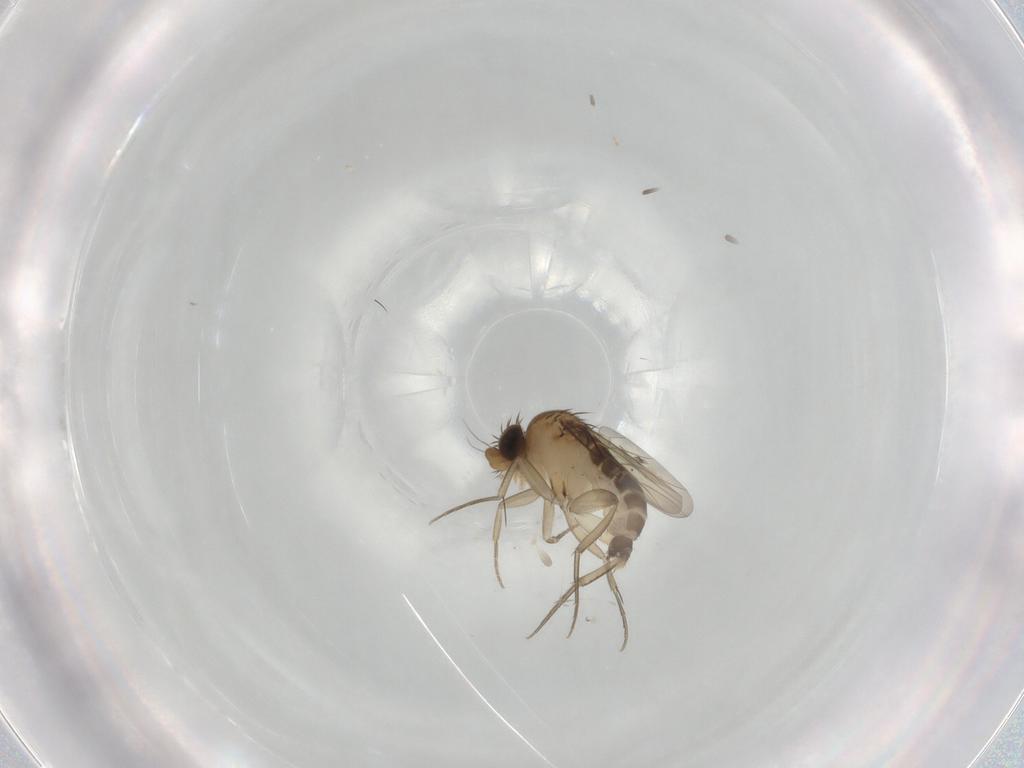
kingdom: Animalia
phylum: Arthropoda
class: Insecta
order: Diptera
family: Phoridae
